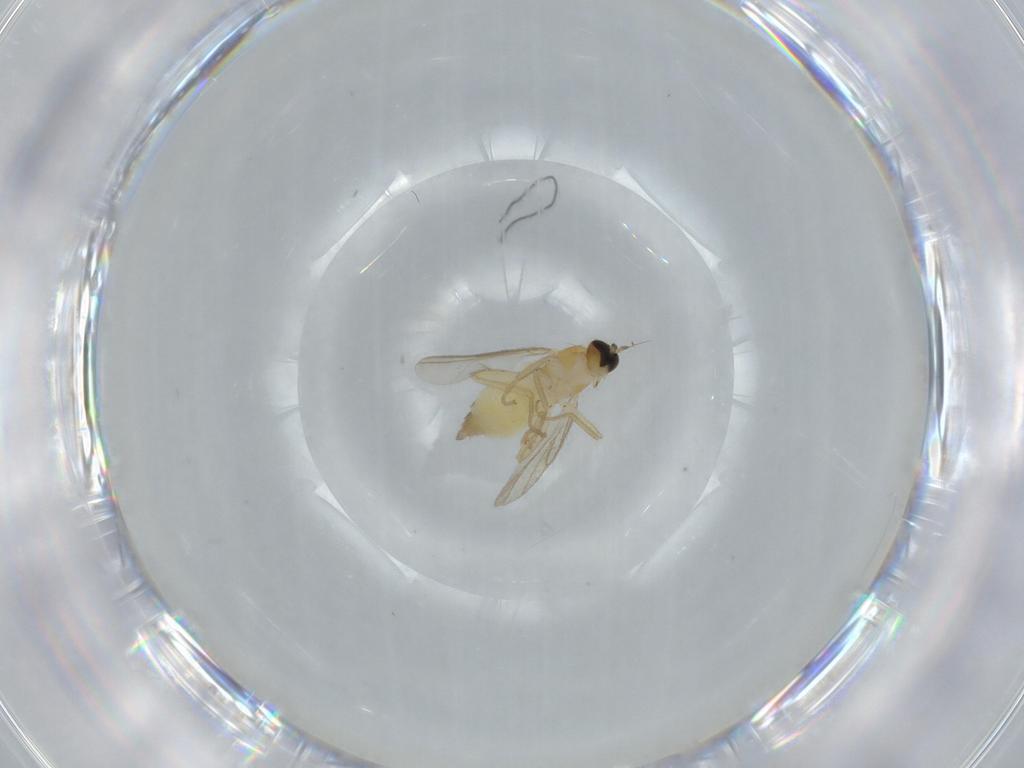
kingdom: Animalia
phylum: Arthropoda
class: Insecta
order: Diptera
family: Hybotidae
